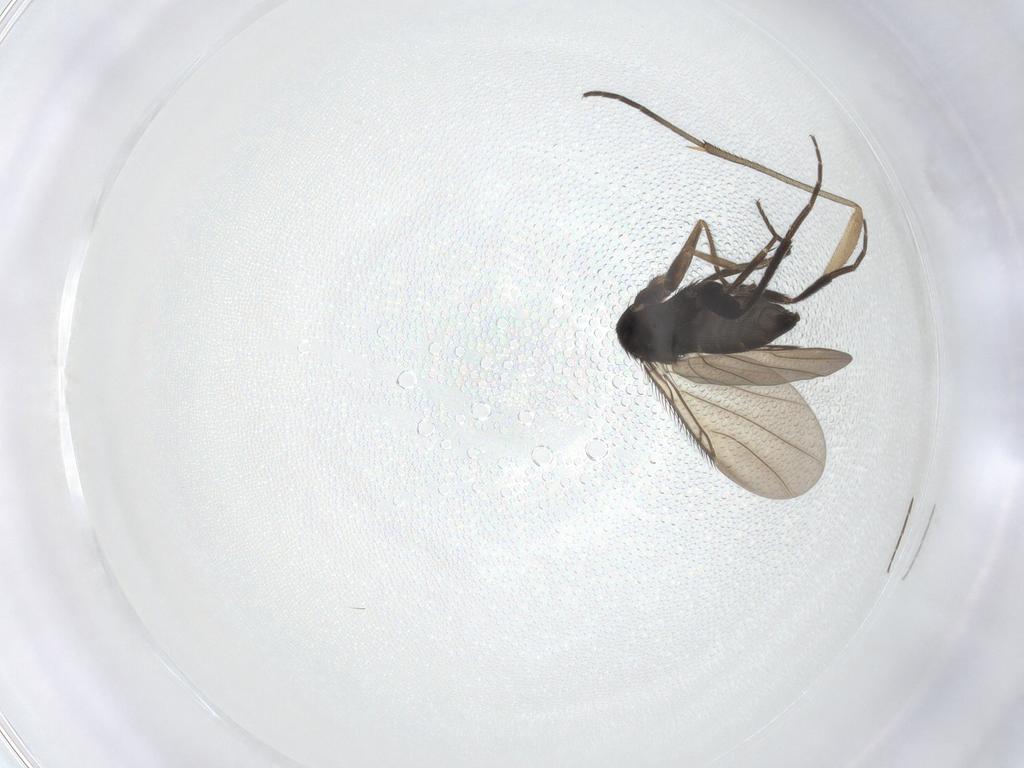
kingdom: Animalia
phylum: Arthropoda
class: Insecta
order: Diptera
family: Phoridae
